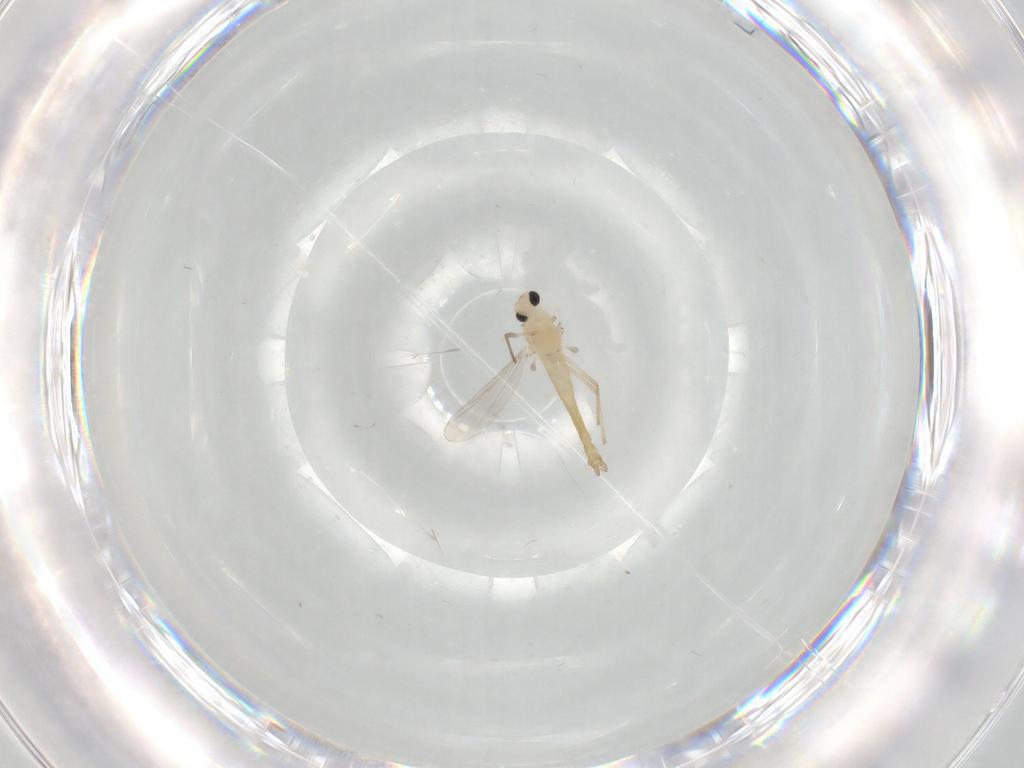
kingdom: Animalia
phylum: Arthropoda
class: Insecta
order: Diptera
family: Chironomidae
